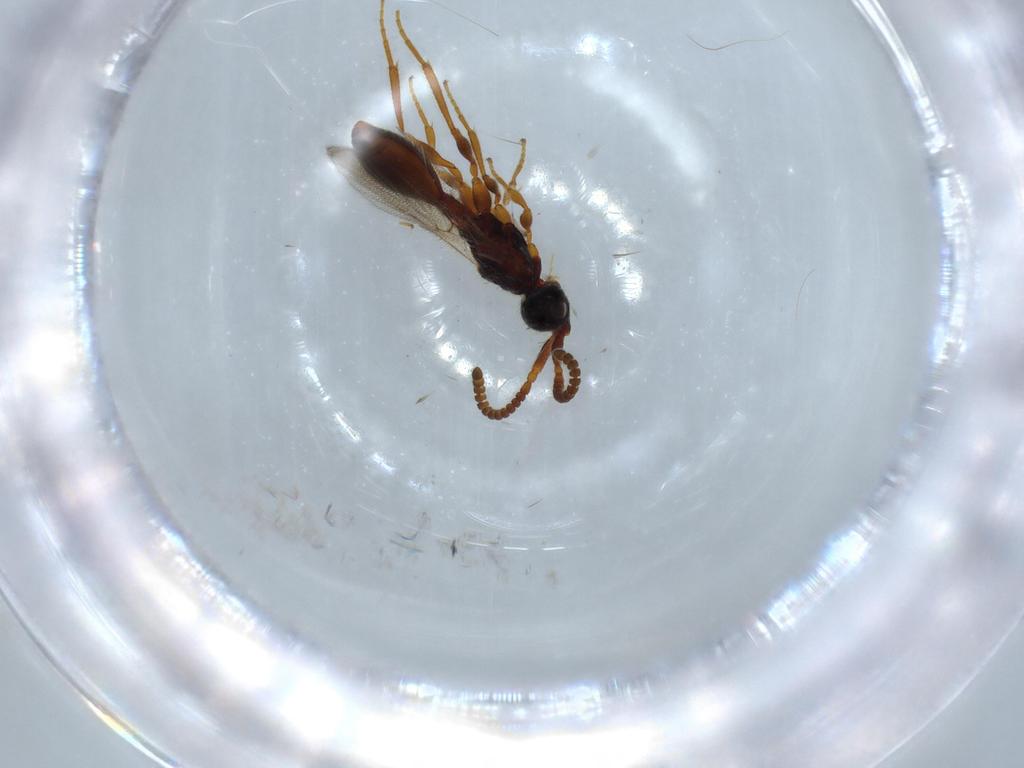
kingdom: Animalia
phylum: Arthropoda
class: Insecta
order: Hymenoptera
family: Diapriidae
